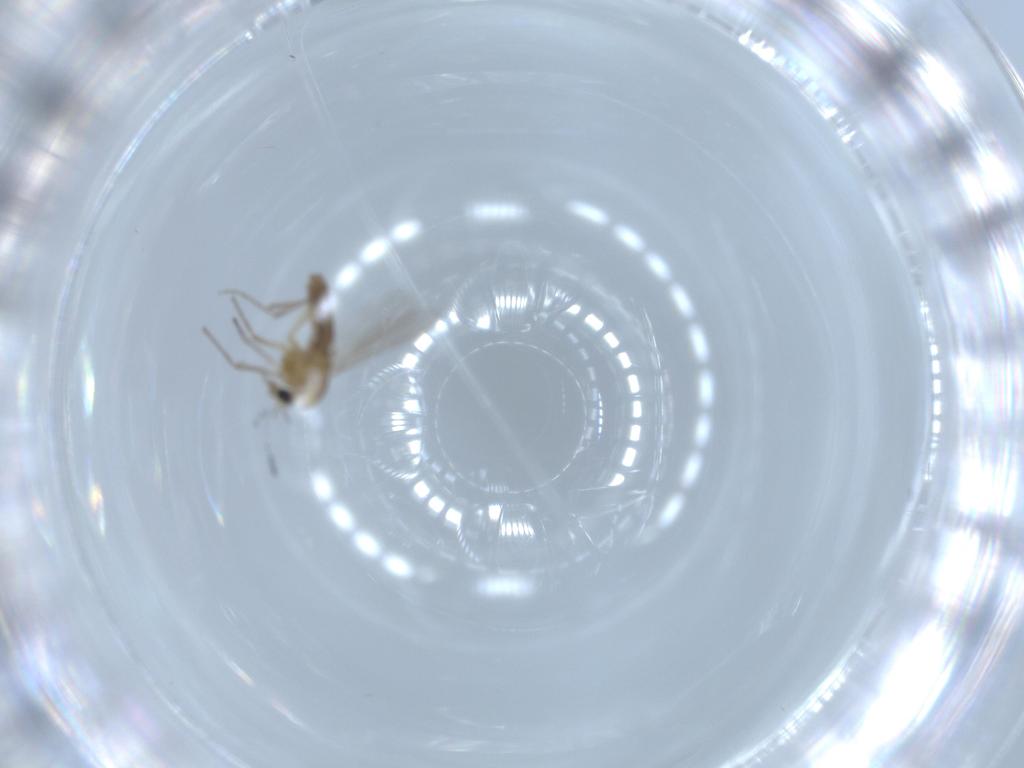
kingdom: Animalia
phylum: Arthropoda
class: Insecta
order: Diptera
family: Chironomidae
